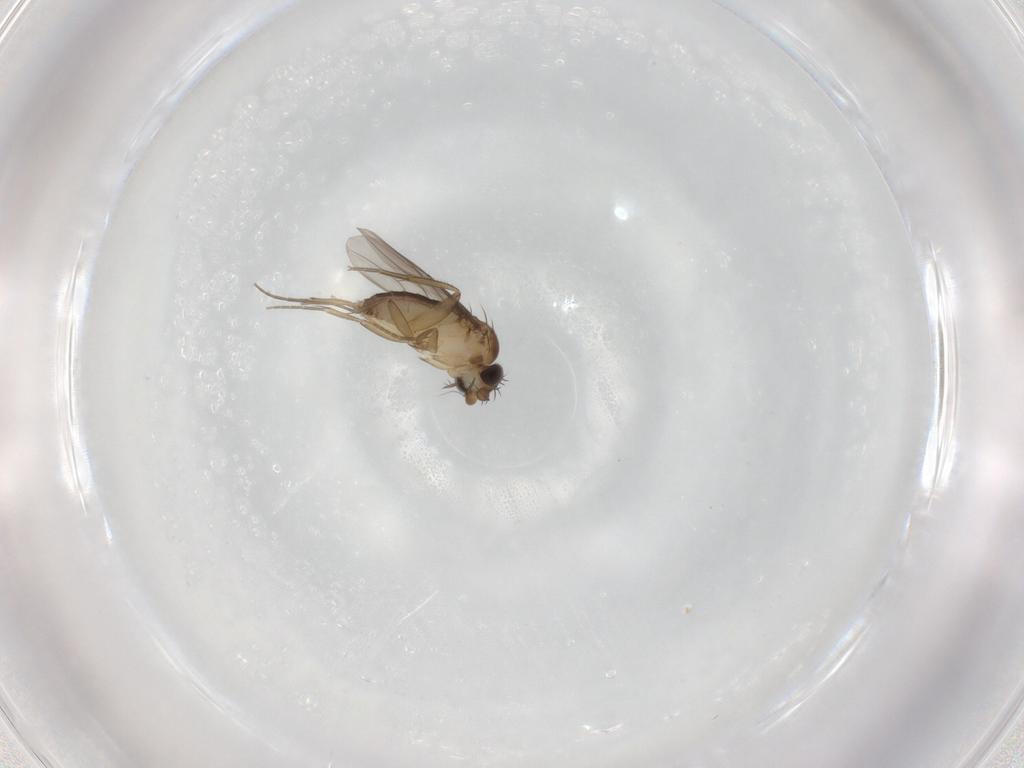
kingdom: Animalia
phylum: Arthropoda
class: Insecta
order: Diptera
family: Phoridae
